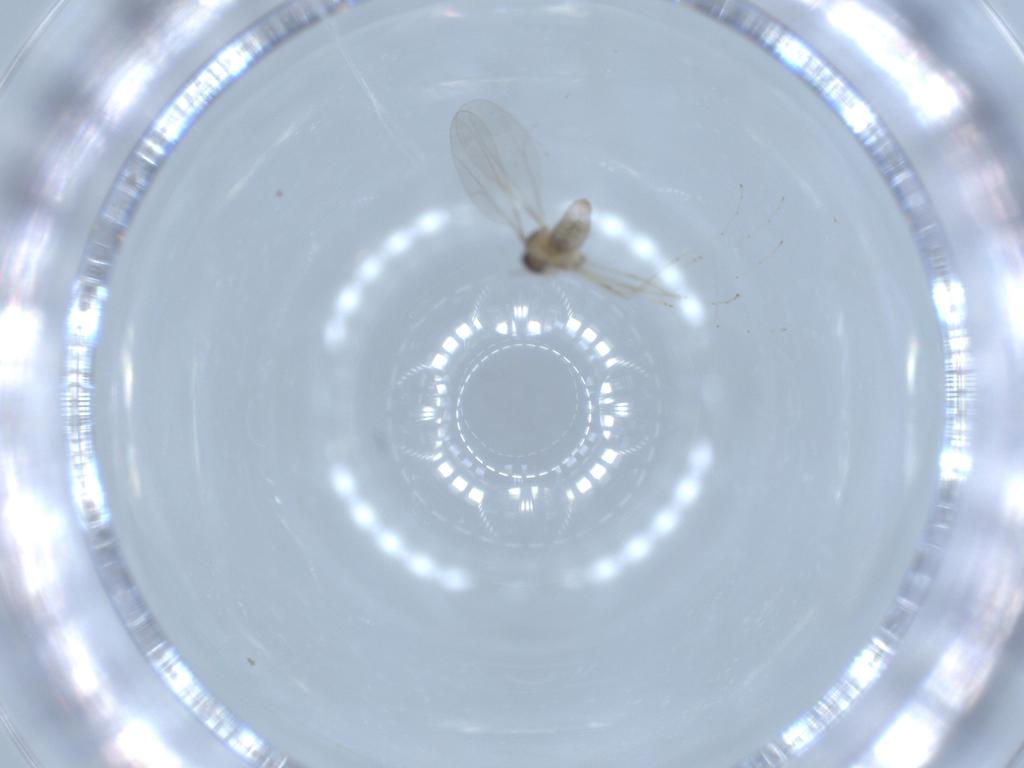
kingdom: Animalia
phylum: Arthropoda
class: Insecta
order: Diptera
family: Cecidomyiidae
